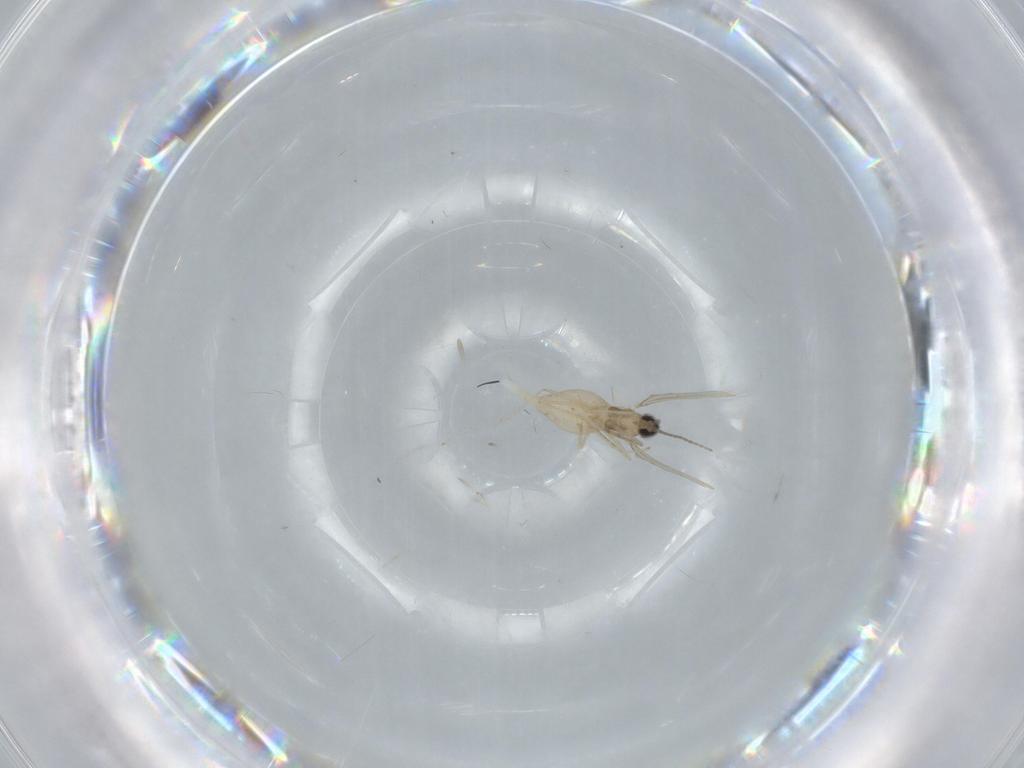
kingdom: Animalia
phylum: Arthropoda
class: Insecta
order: Diptera
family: Cecidomyiidae
